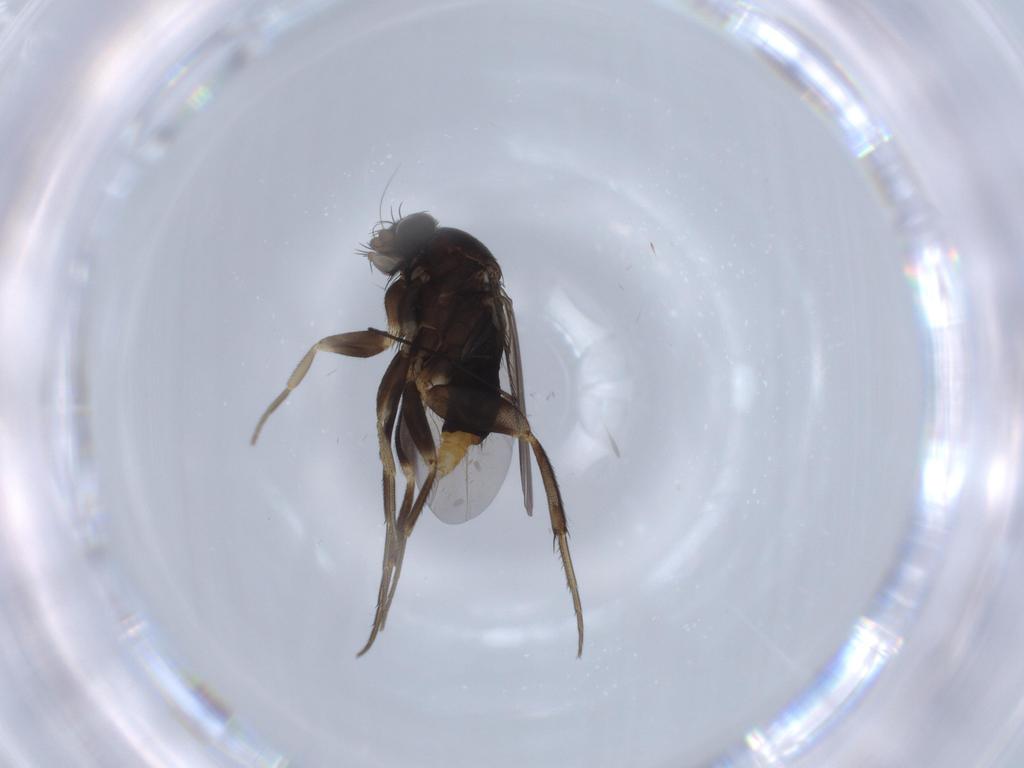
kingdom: Animalia
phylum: Arthropoda
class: Insecta
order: Diptera
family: Phoridae
